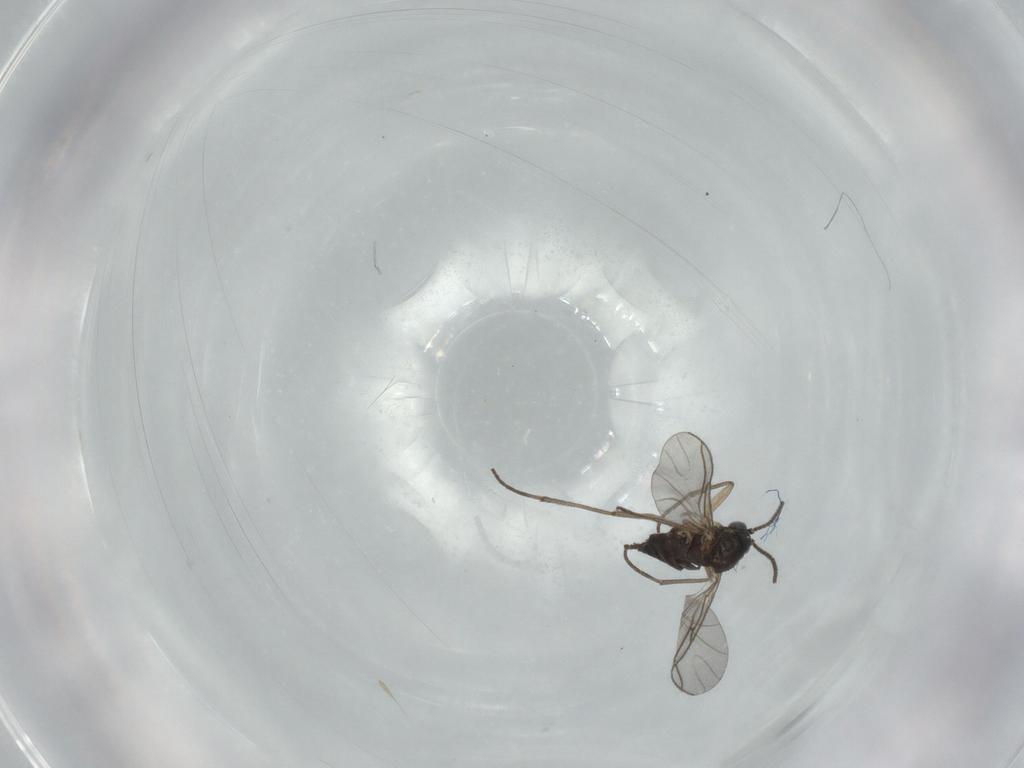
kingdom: Animalia
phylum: Arthropoda
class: Insecta
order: Diptera
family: Sciaridae
